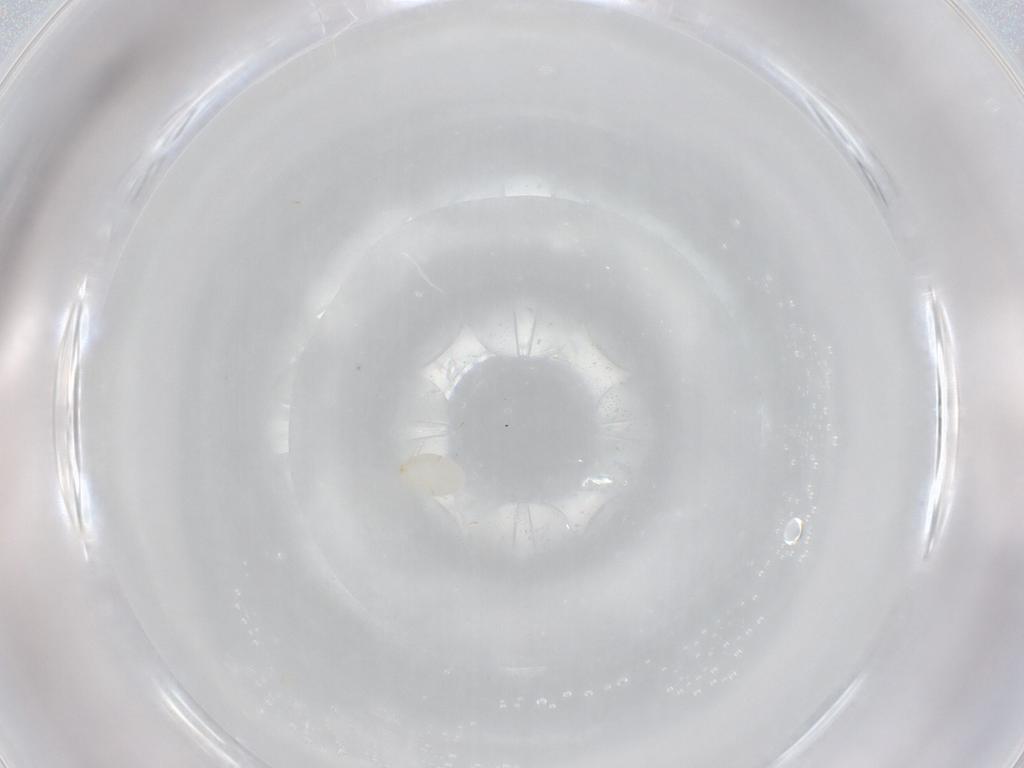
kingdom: Animalia
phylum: Arthropoda
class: Arachnida
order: Trombidiformes
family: Microtrombidiidae
